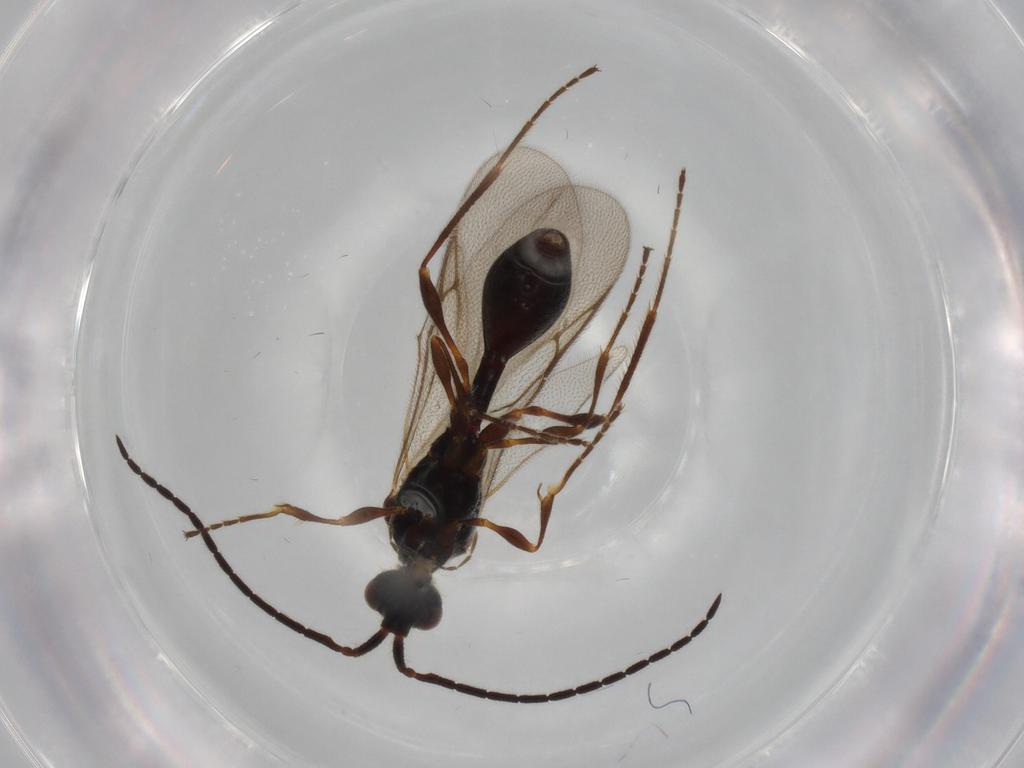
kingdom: Animalia
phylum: Arthropoda
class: Insecta
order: Hymenoptera
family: Diapriidae
